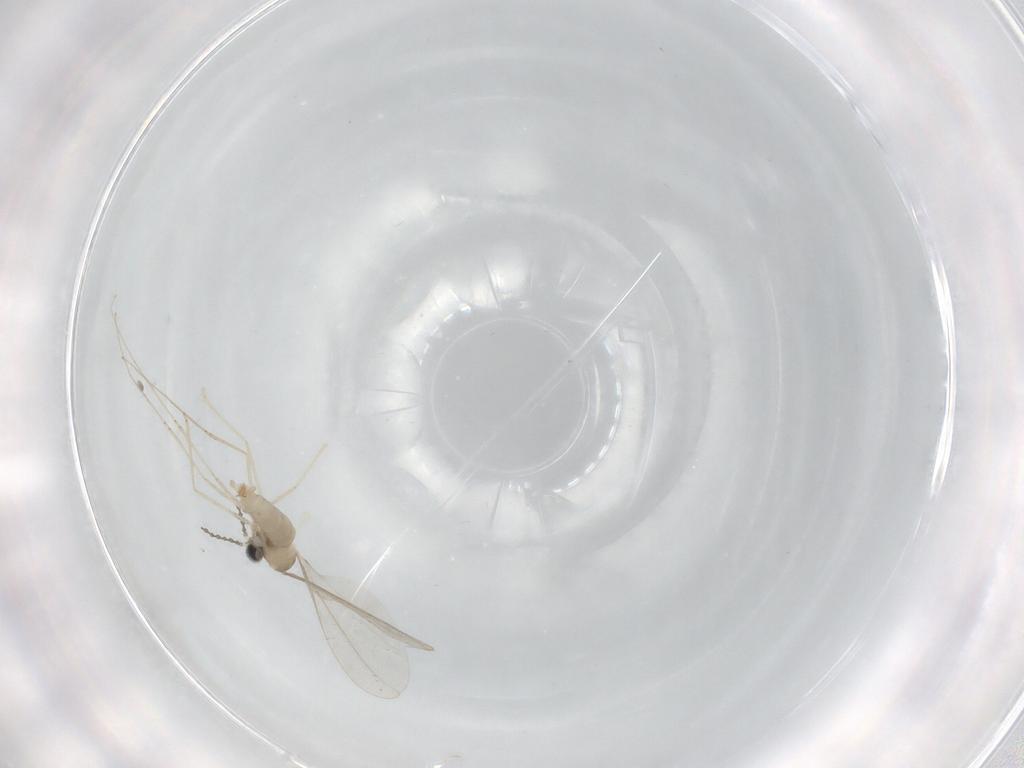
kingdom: Animalia
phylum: Arthropoda
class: Insecta
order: Diptera
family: Cecidomyiidae
